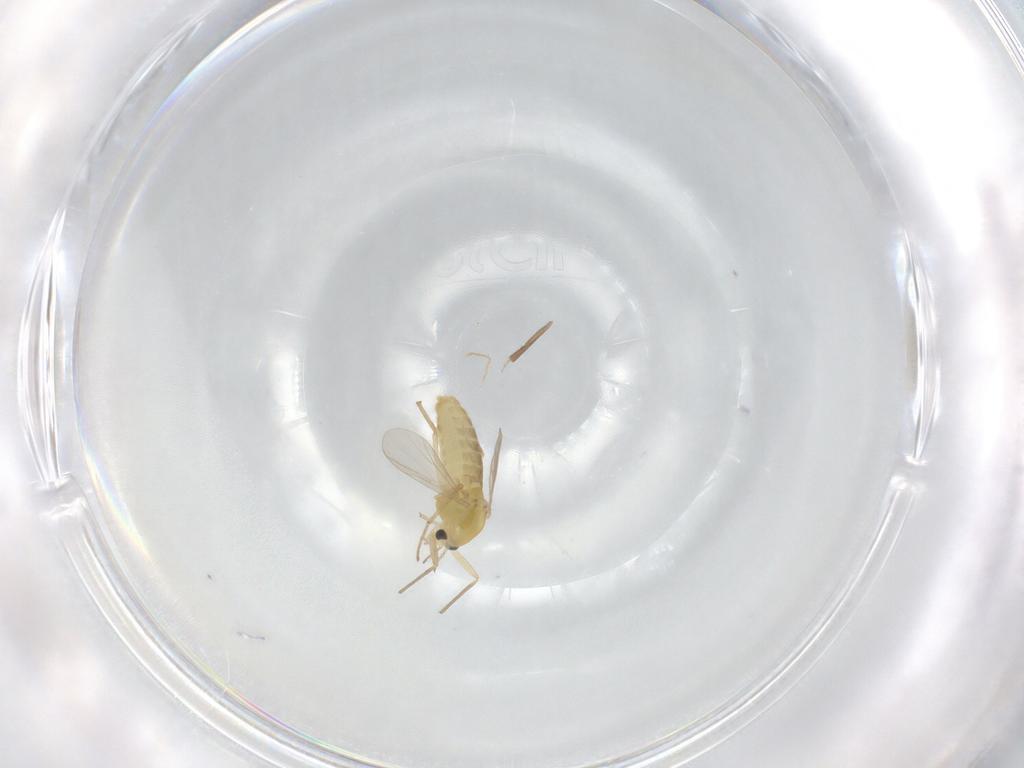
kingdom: Animalia
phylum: Arthropoda
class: Insecta
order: Diptera
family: Chironomidae
